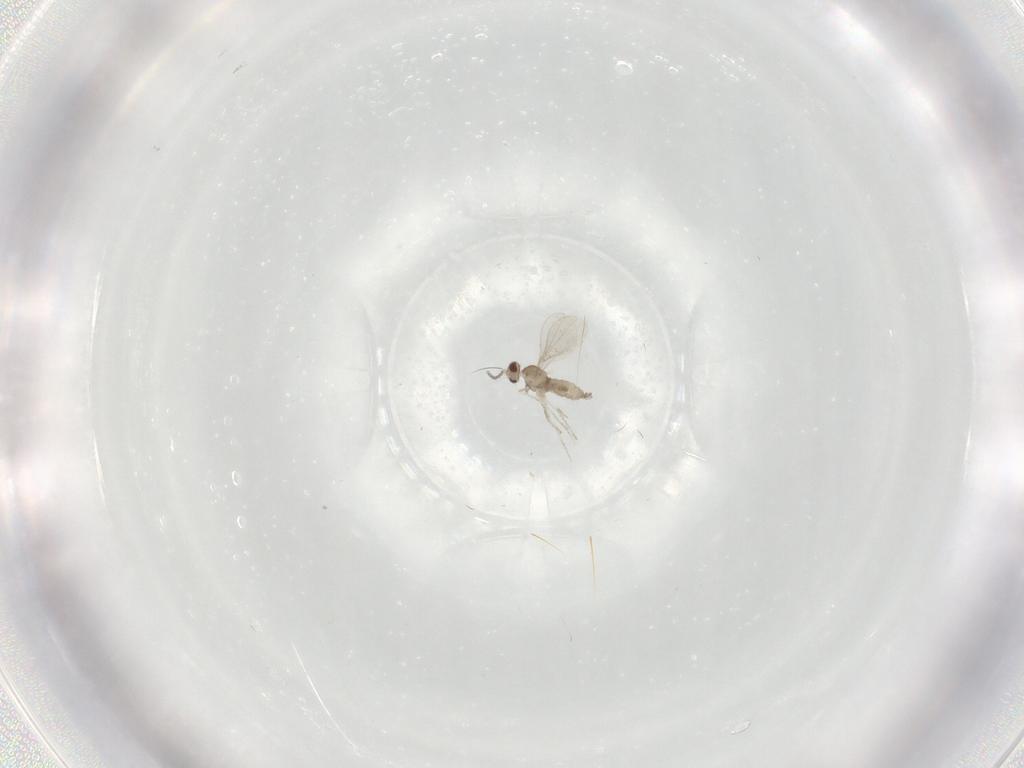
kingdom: Animalia
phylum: Arthropoda
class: Insecta
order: Diptera
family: Cecidomyiidae
